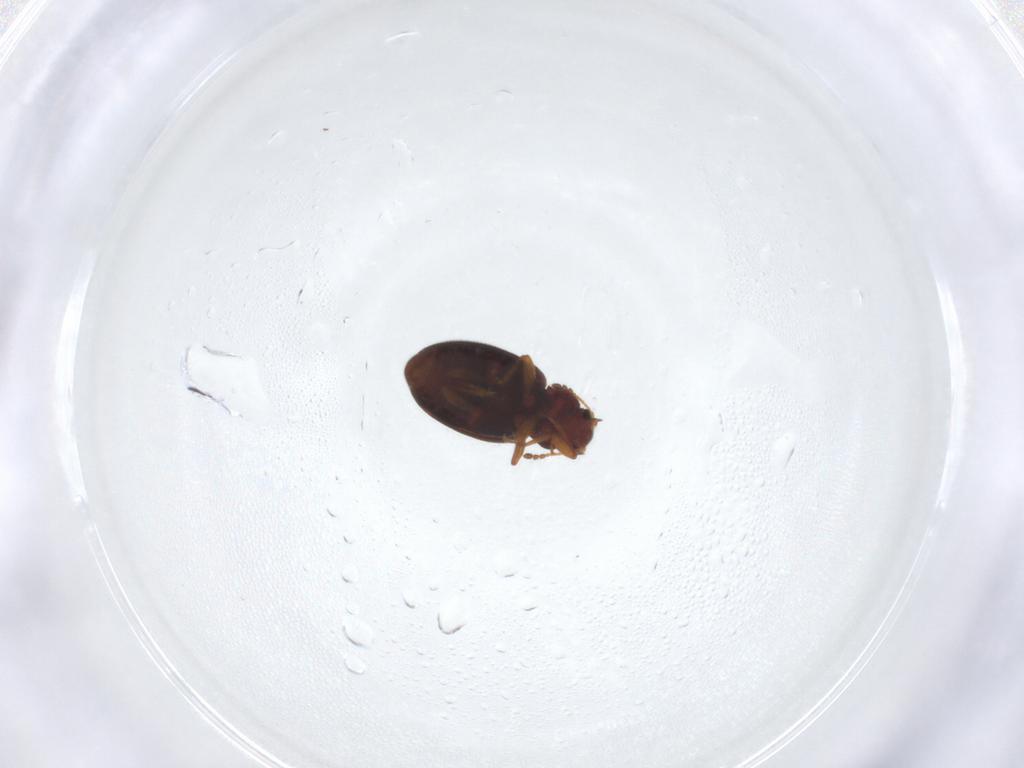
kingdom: Animalia
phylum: Arthropoda
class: Insecta
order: Coleoptera
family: Latridiidae
